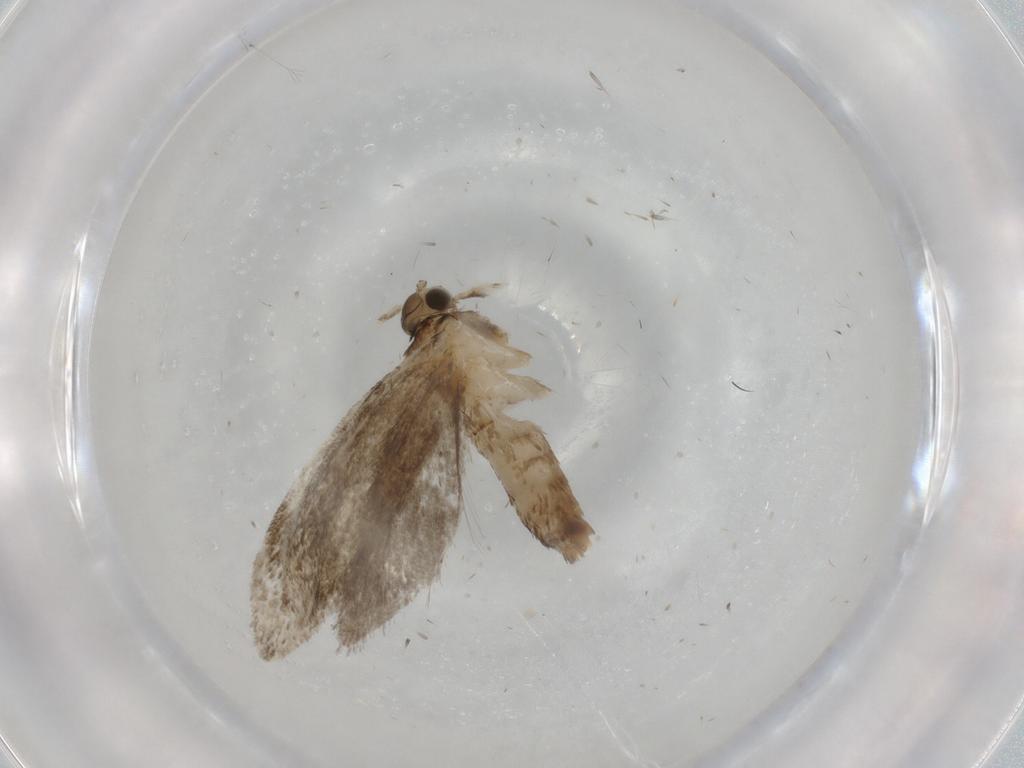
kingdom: Animalia
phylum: Arthropoda
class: Insecta
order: Lepidoptera
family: Tineidae
